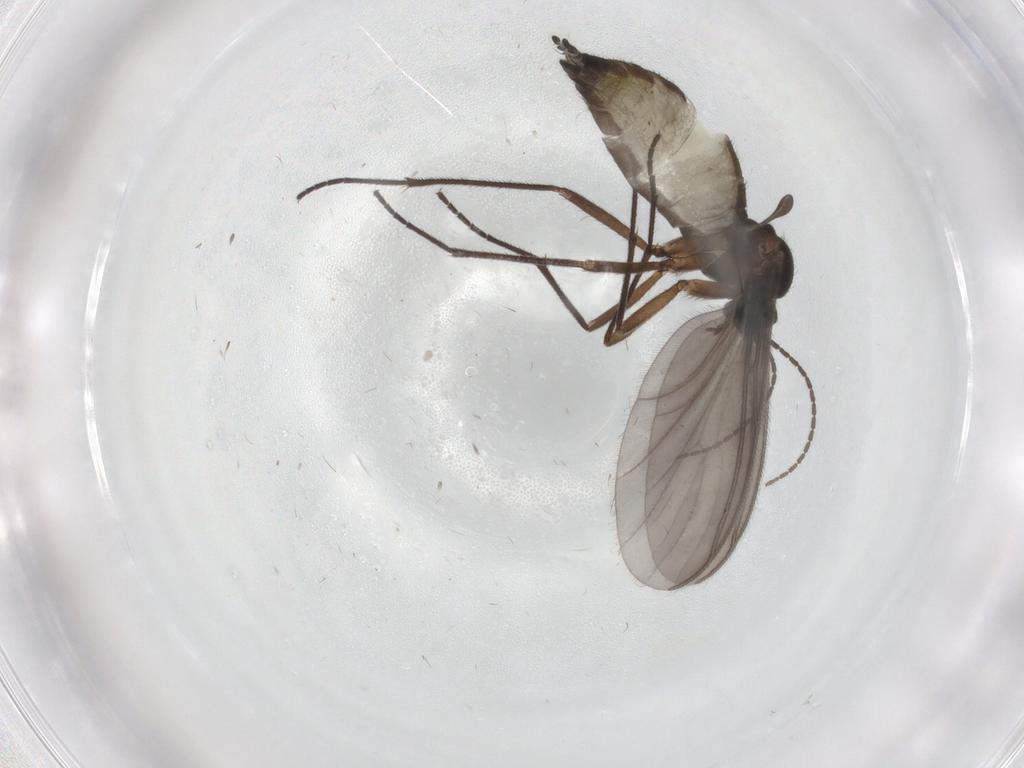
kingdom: Animalia
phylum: Arthropoda
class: Insecta
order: Diptera
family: Sciaridae
